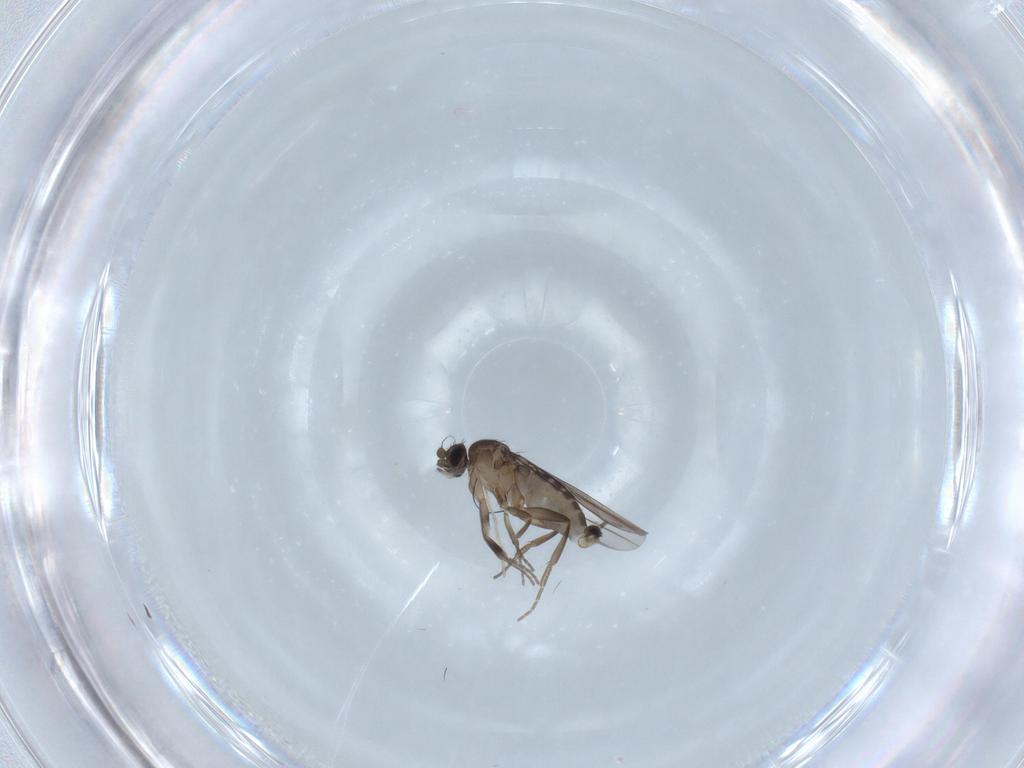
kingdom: Animalia
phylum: Arthropoda
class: Insecta
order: Diptera
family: Phoridae
